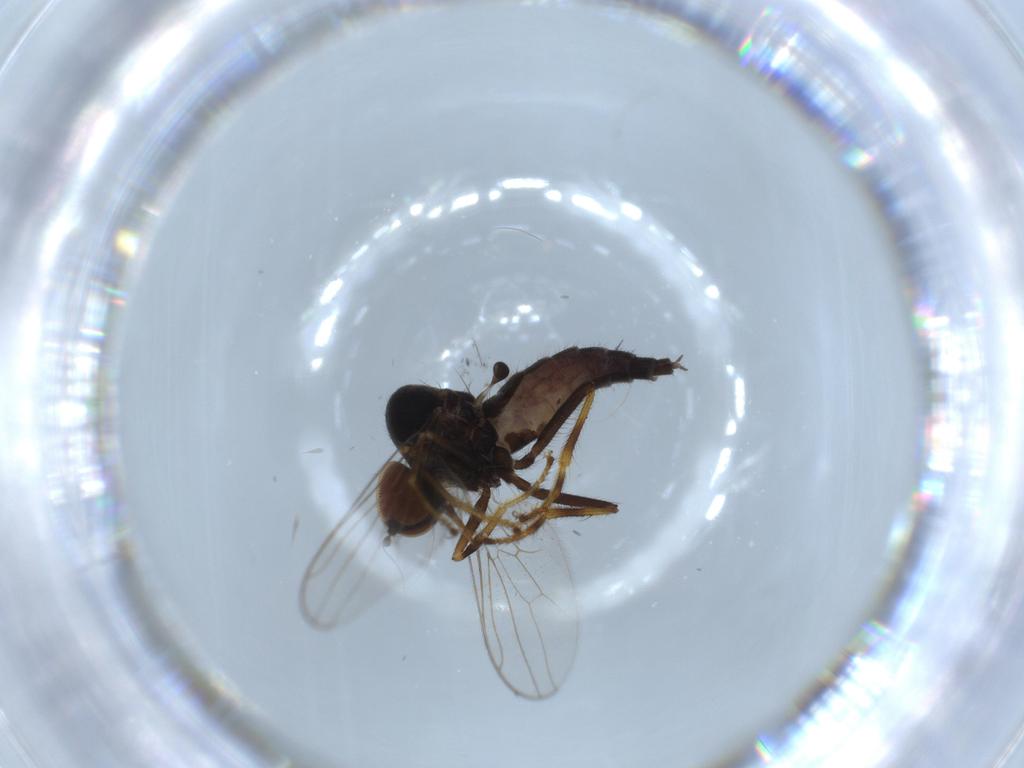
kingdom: Animalia
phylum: Arthropoda
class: Insecta
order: Diptera
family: Hybotidae
